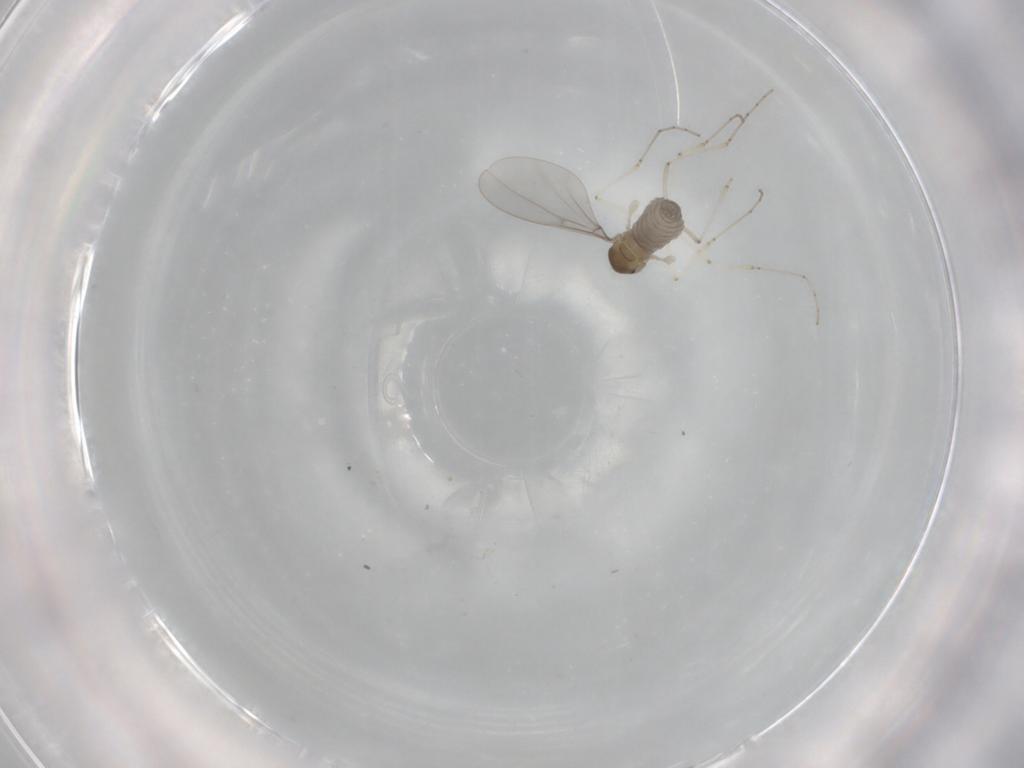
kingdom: Animalia
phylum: Arthropoda
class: Insecta
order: Diptera
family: Cecidomyiidae
